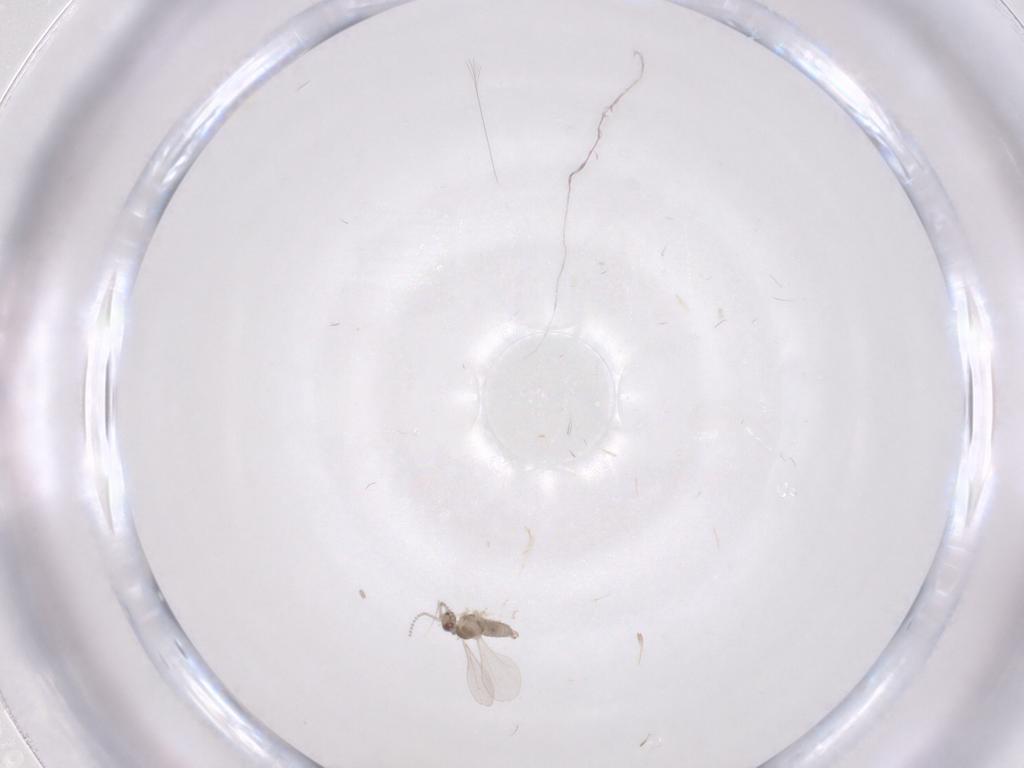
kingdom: Animalia
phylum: Arthropoda
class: Insecta
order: Diptera
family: Cecidomyiidae
